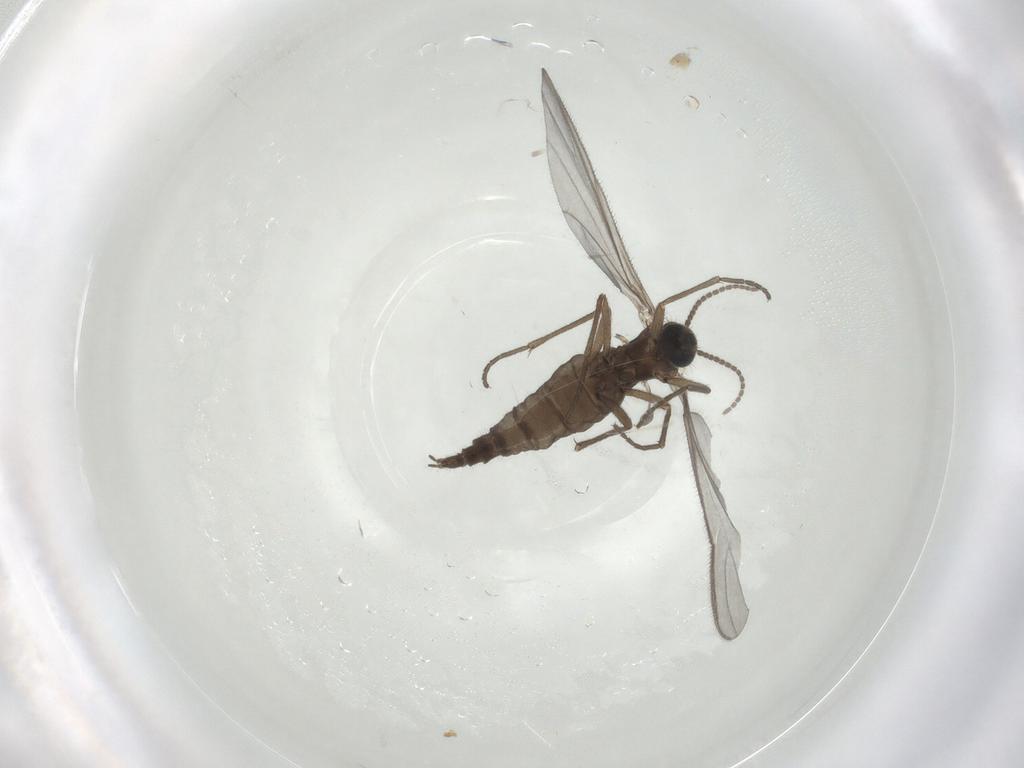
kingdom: Animalia
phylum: Arthropoda
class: Insecta
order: Diptera
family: Sciaridae
